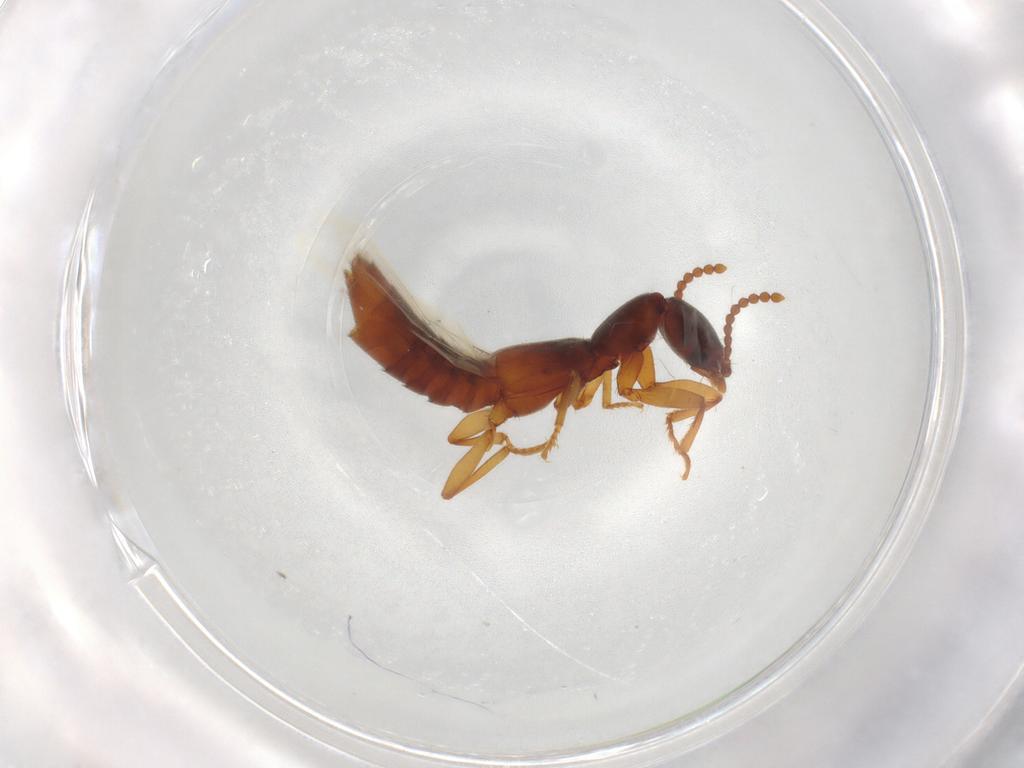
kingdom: Animalia
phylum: Arthropoda
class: Insecta
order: Coleoptera
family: Staphylinidae
